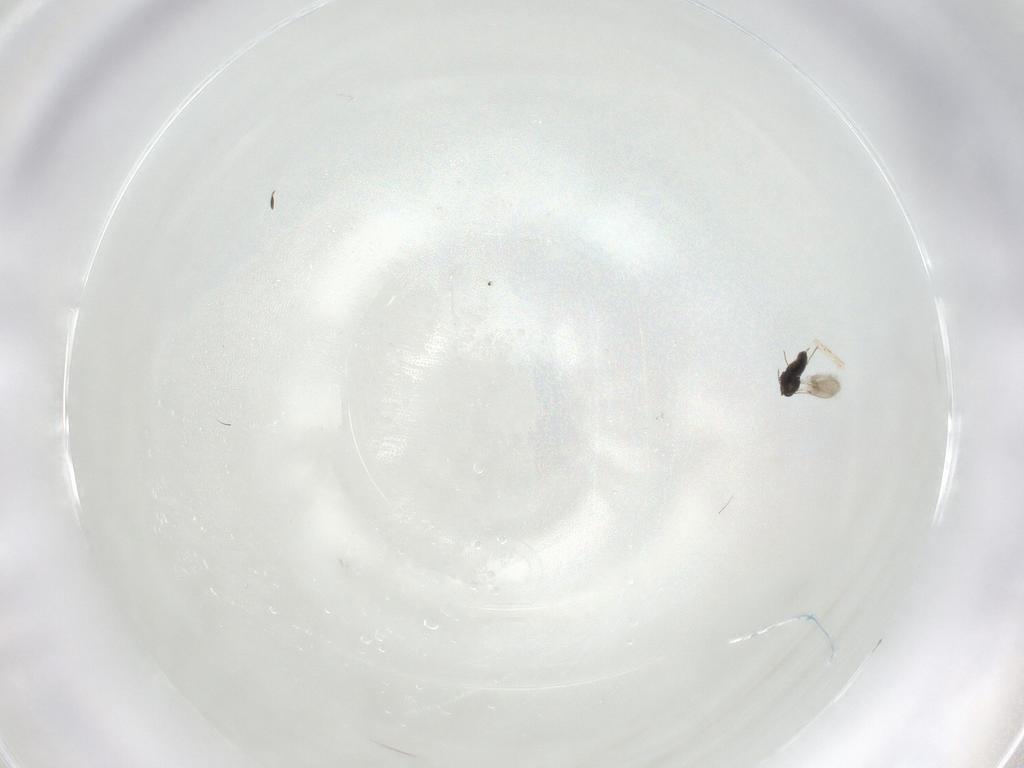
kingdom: Animalia
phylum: Arthropoda
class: Insecta
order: Hymenoptera
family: Scelionidae
